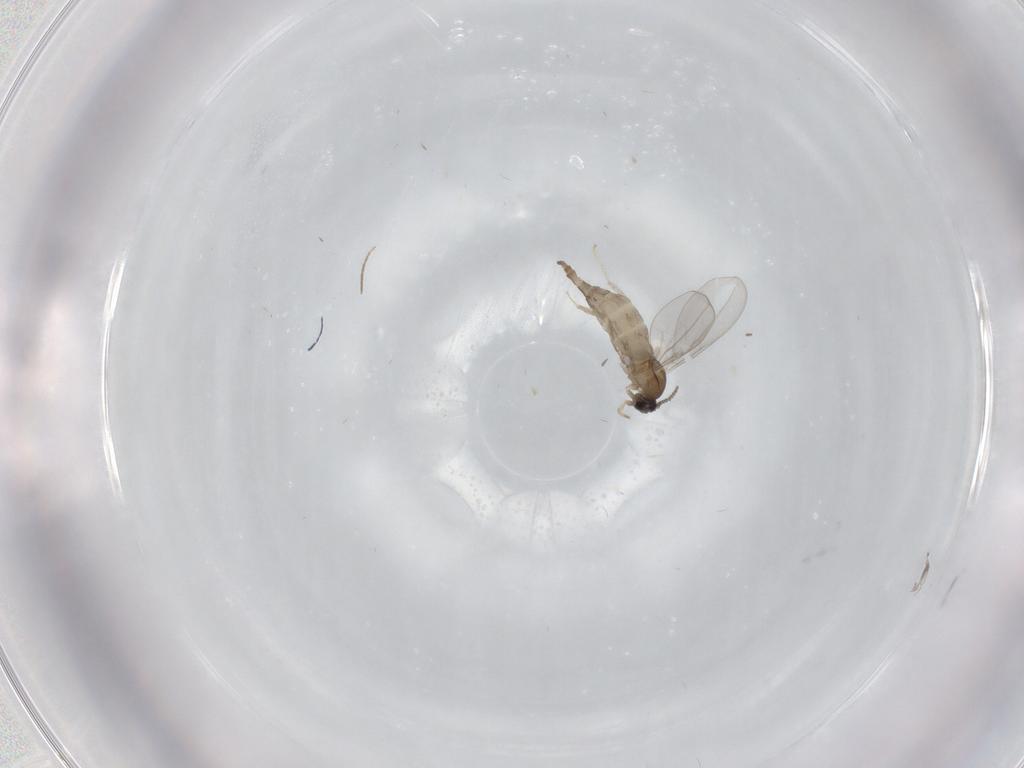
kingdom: Animalia
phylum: Arthropoda
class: Insecta
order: Diptera
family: Cecidomyiidae
